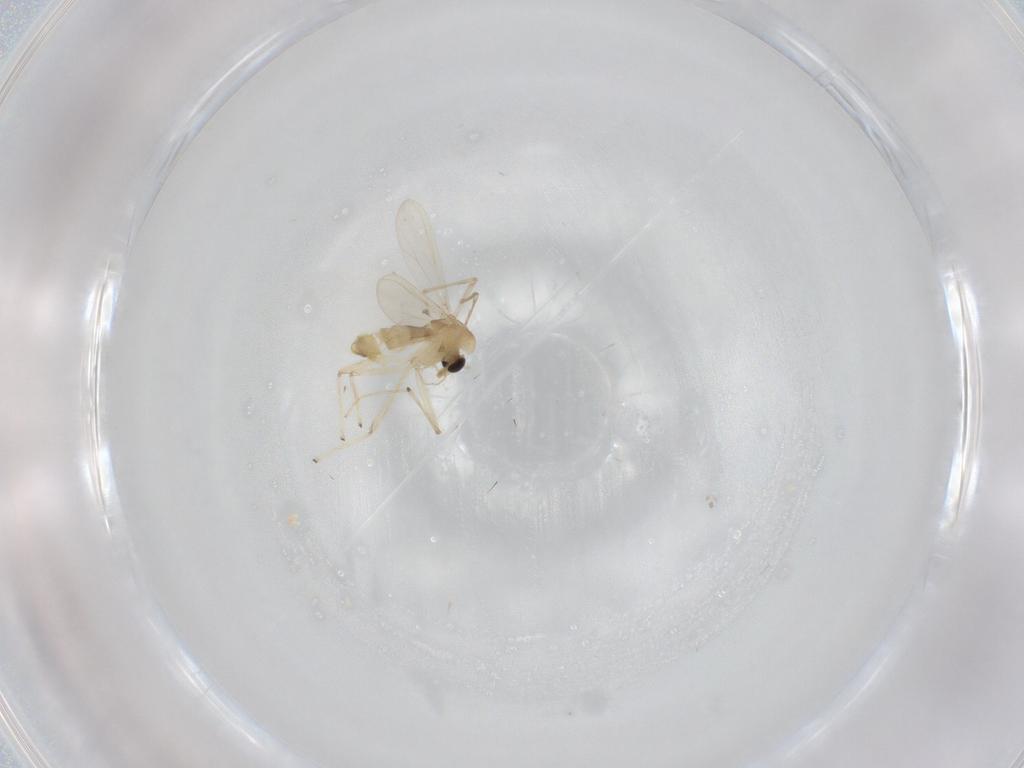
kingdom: Animalia
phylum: Arthropoda
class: Insecta
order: Diptera
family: Chironomidae
